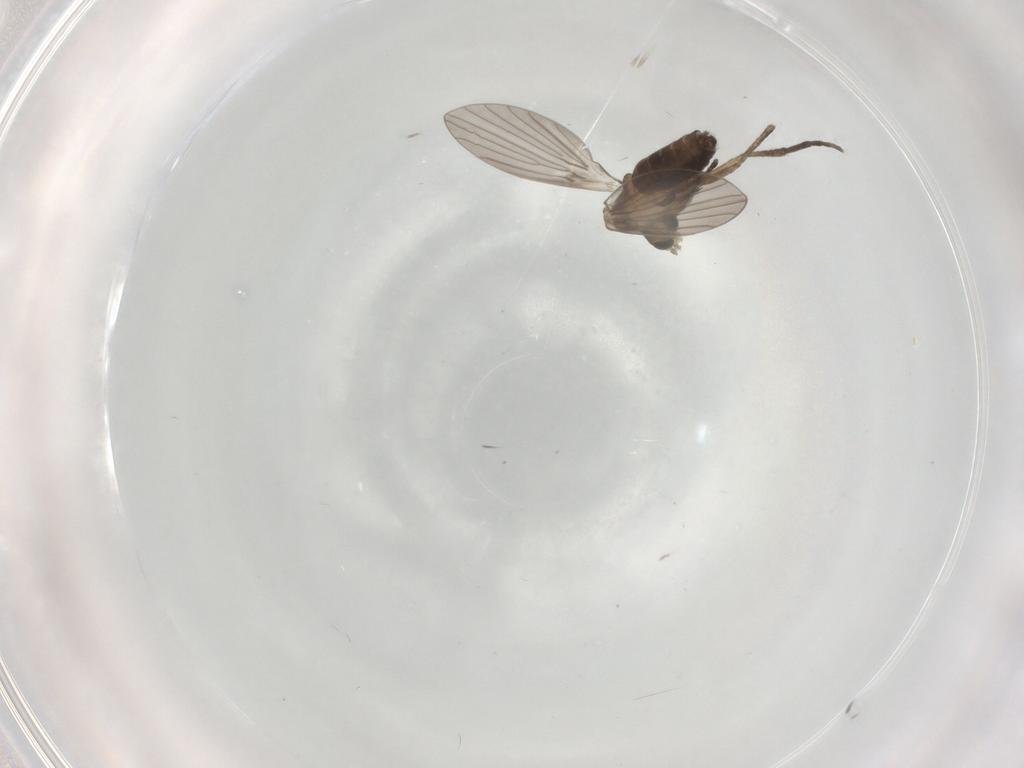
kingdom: Animalia
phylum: Arthropoda
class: Insecta
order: Diptera
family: Psychodidae
